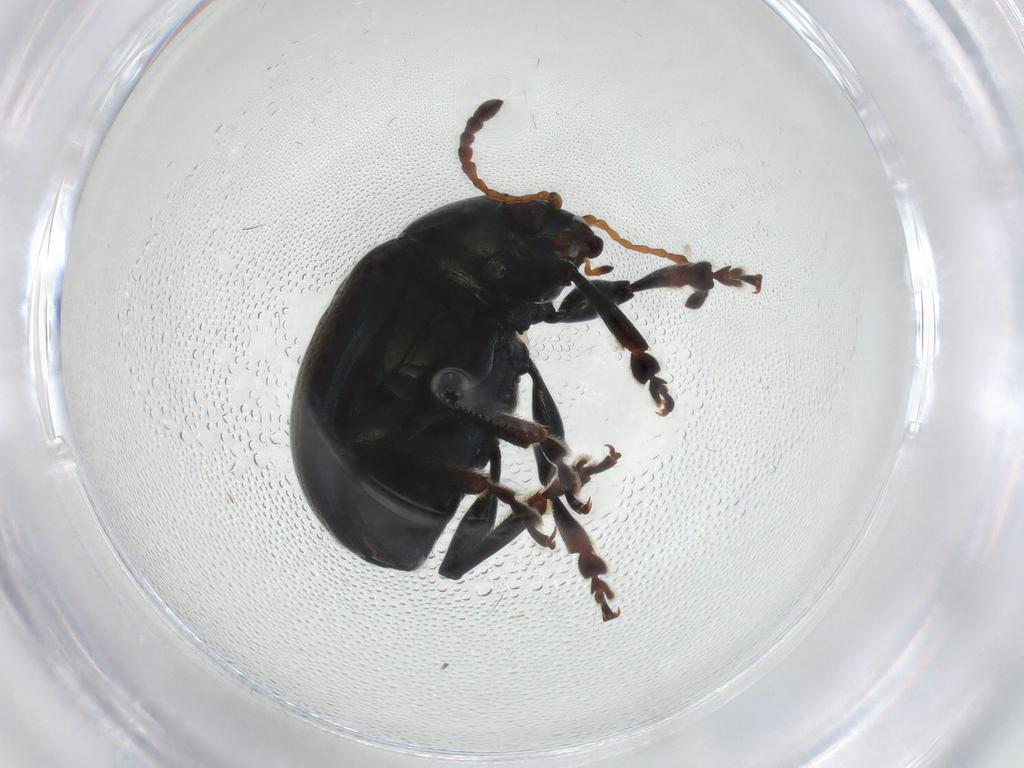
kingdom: Animalia
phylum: Arthropoda
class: Insecta
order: Coleoptera
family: Chrysomelidae
